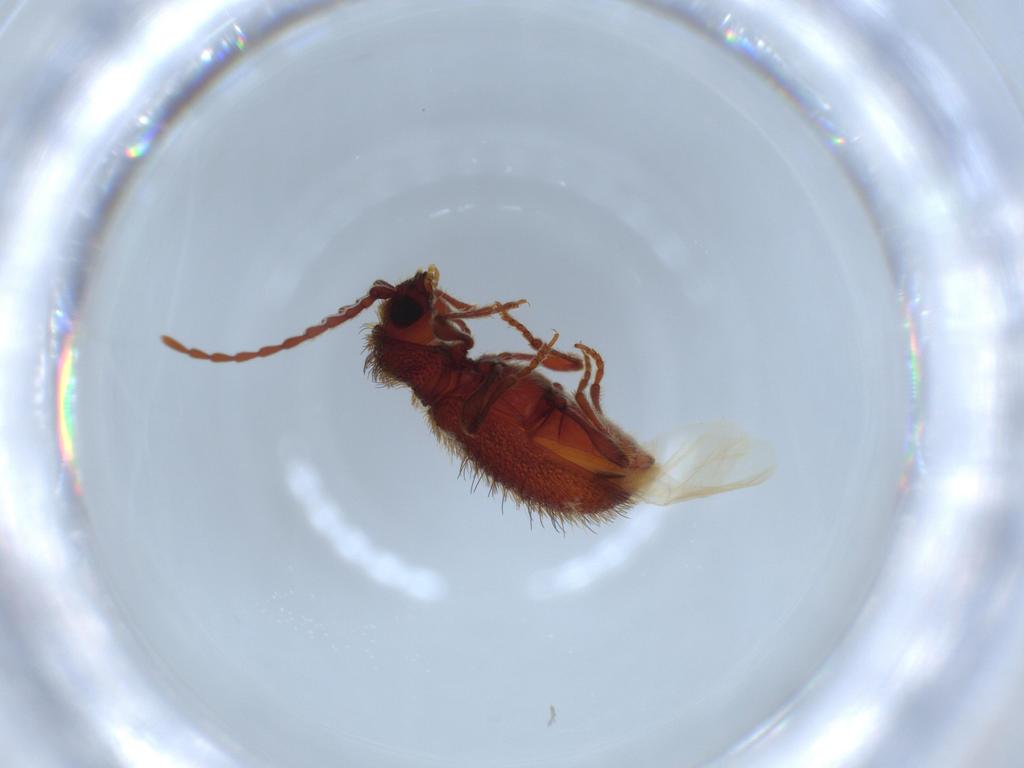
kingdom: Animalia
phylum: Arthropoda
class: Insecta
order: Coleoptera
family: Ptinidae
